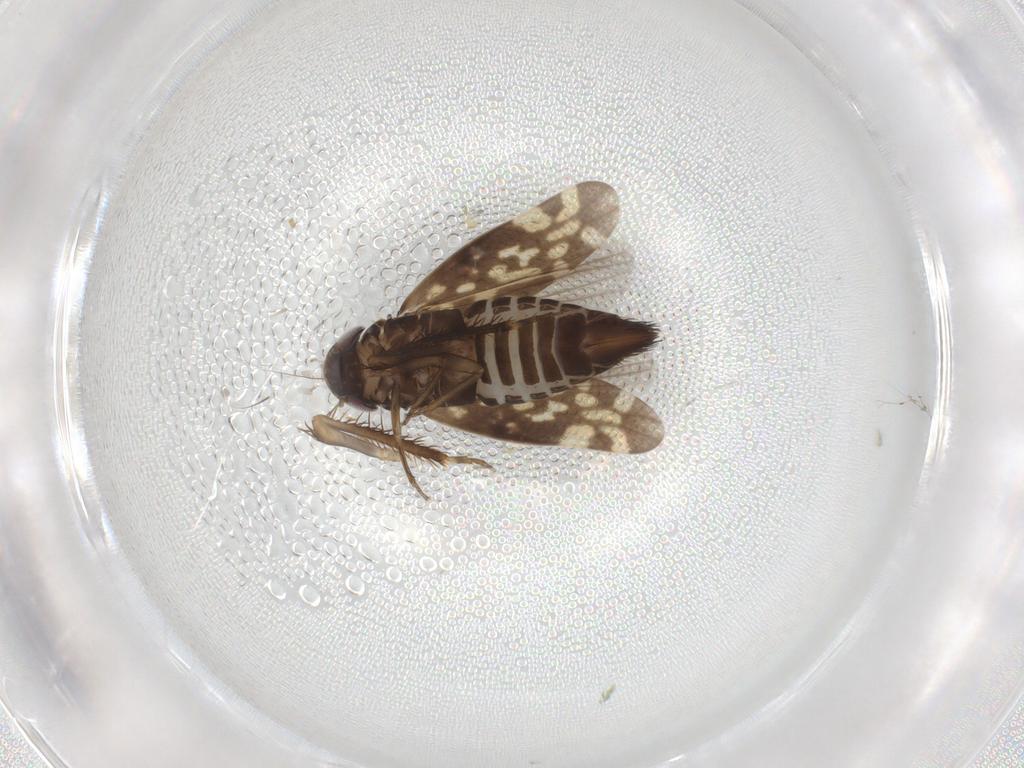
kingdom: Animalia
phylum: Arthropoda
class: Insecta
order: Hemiptera
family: Cicadellidae
